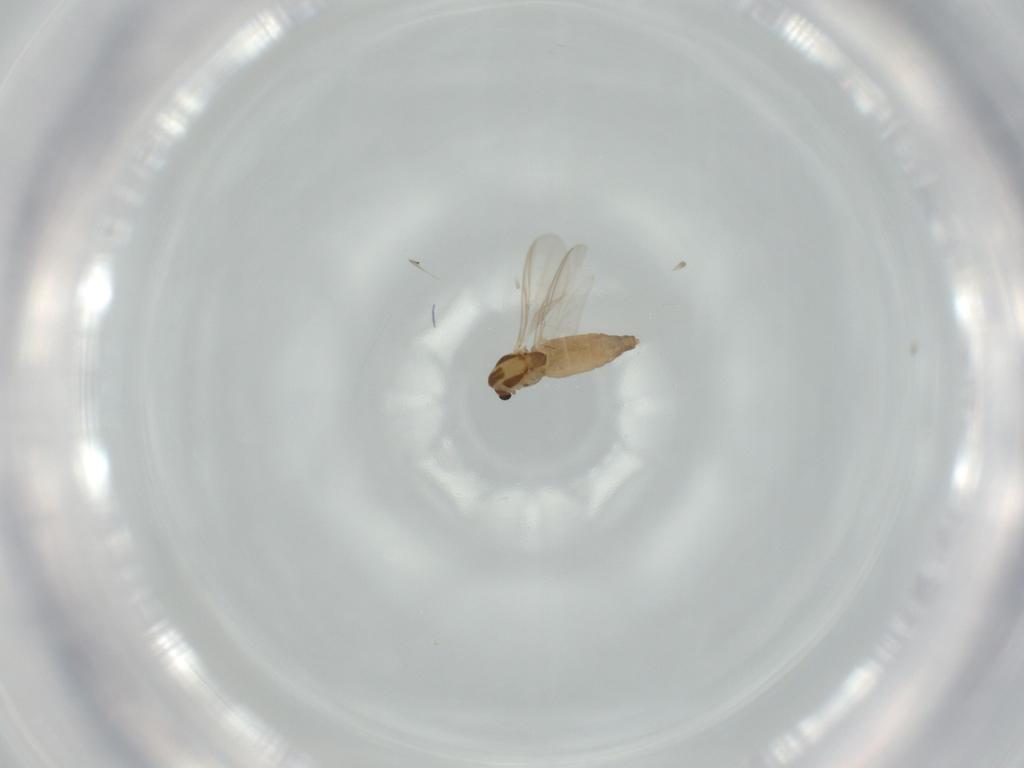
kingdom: Animalia
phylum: Arthropoda
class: Insecta
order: Diptera
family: Chironomidae
